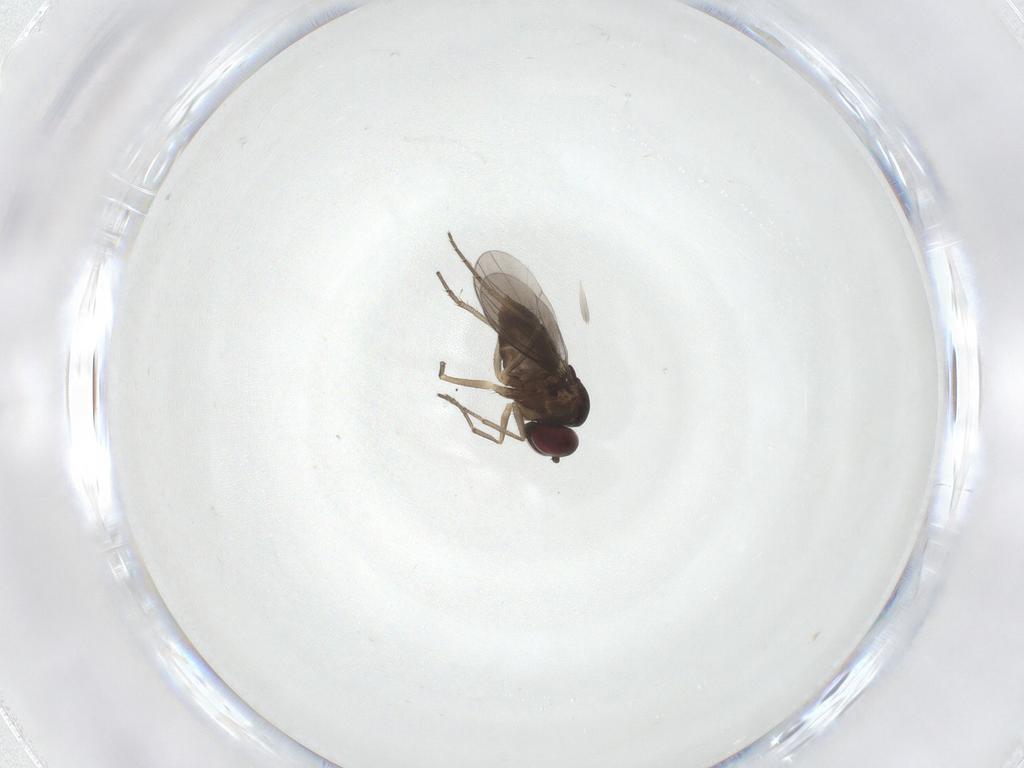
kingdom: Animalia
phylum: Arthropoda
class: Insecta
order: Diptera
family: Dolichopodidae
